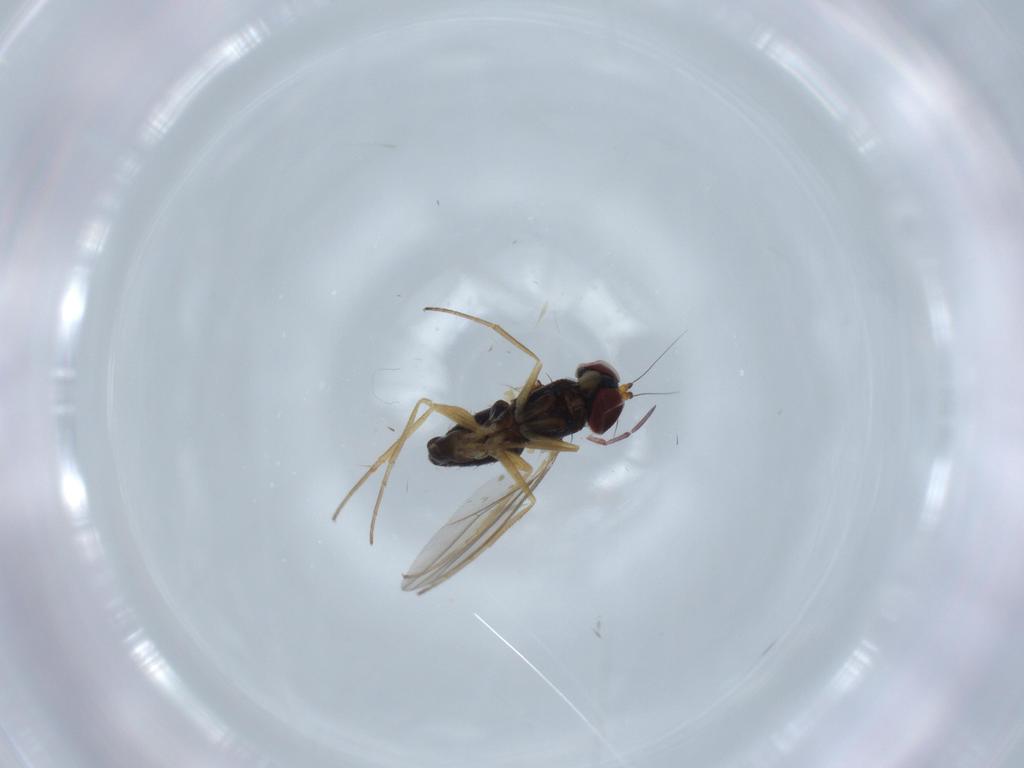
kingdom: Animalia
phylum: Arthropoda
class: Insecta
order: Diptera
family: Dolichopodidae
